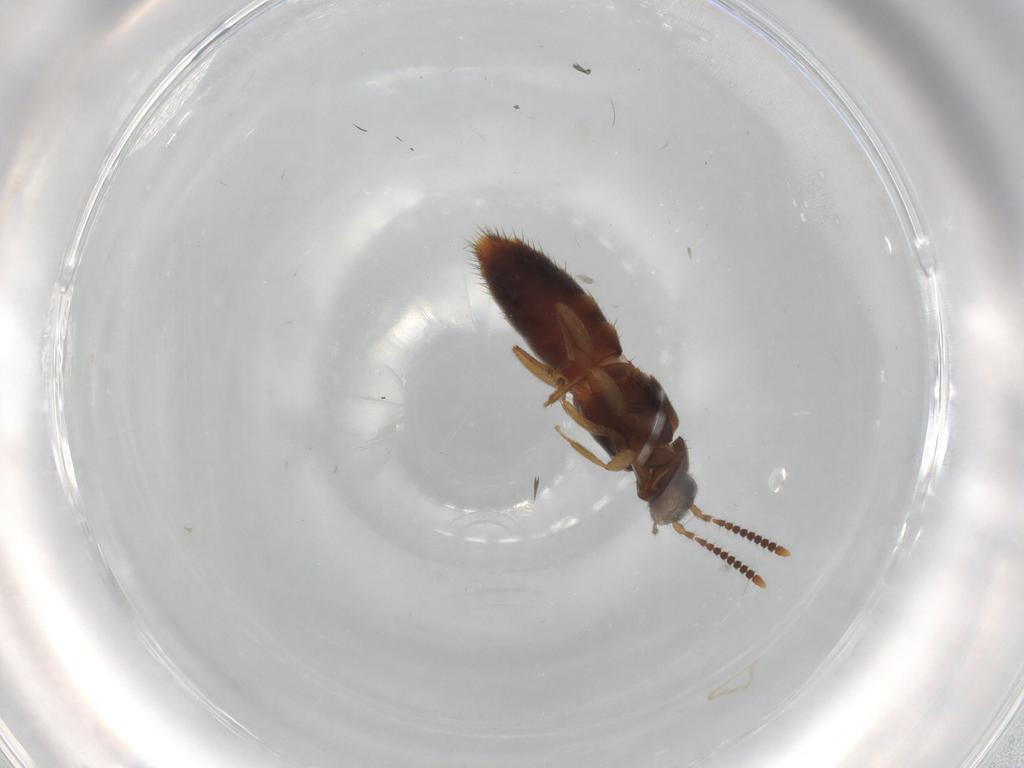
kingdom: Animalia
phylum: Arthropoda
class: Insecta
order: Coleoptera
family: Staphylinidae
